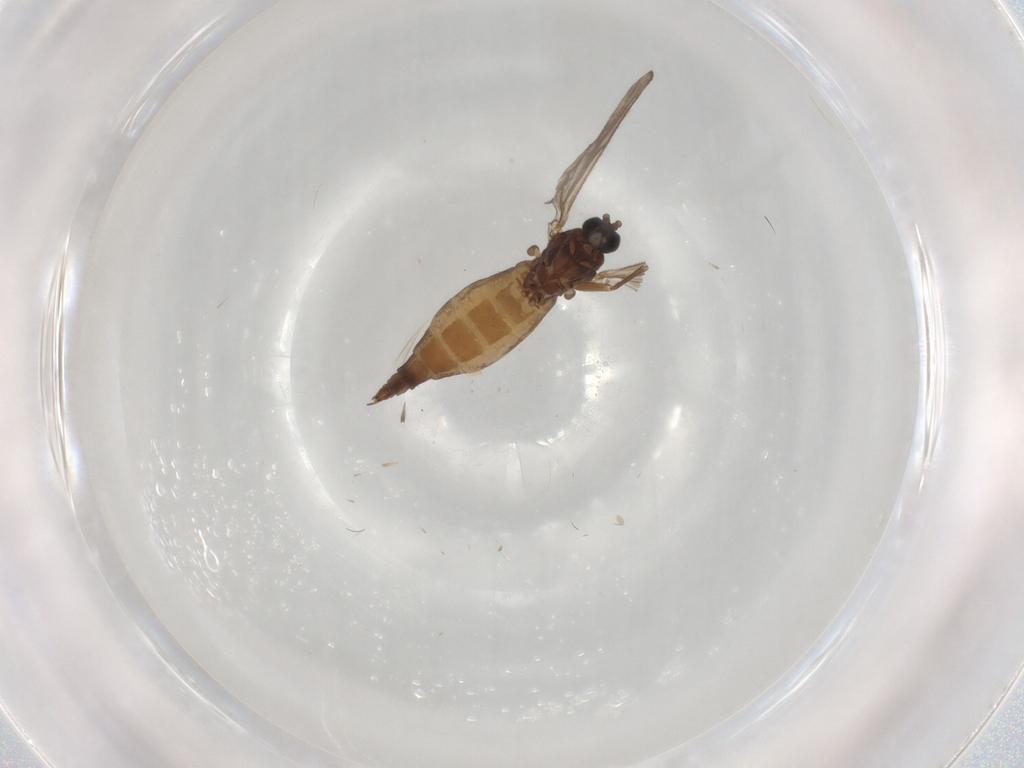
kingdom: Animalia
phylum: Arthropoda
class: Insecta
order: Diptera
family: Sciaridae
